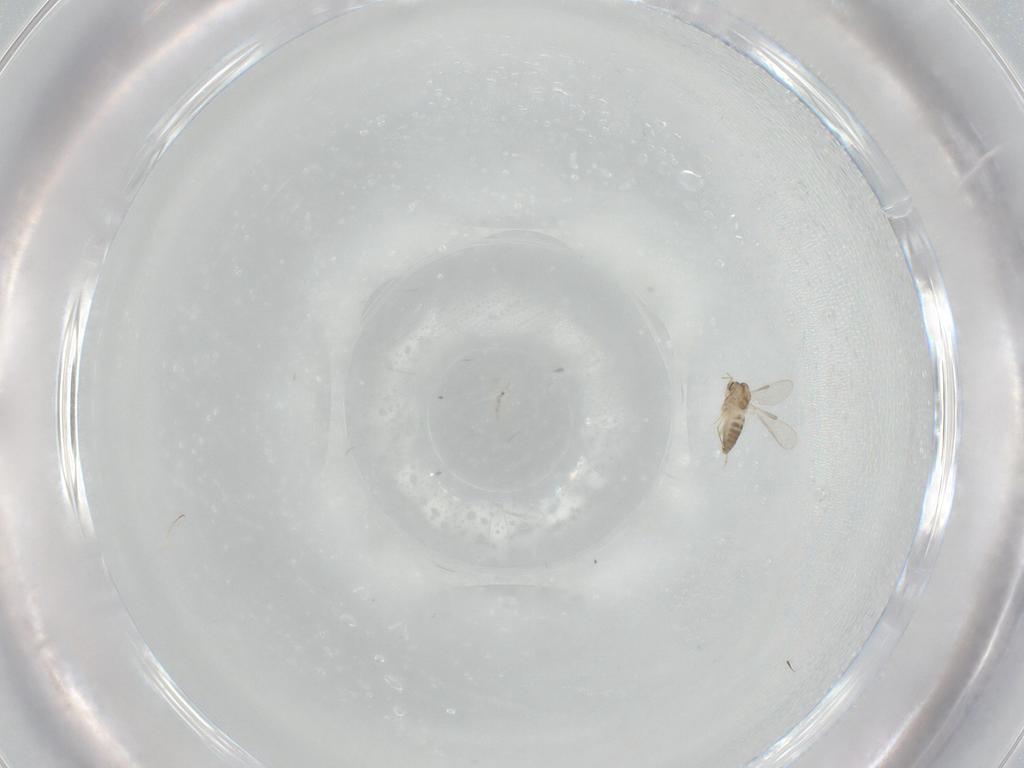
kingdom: Animalia
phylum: Arthropoda
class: Insecta
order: Diptera
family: Chironomidae
